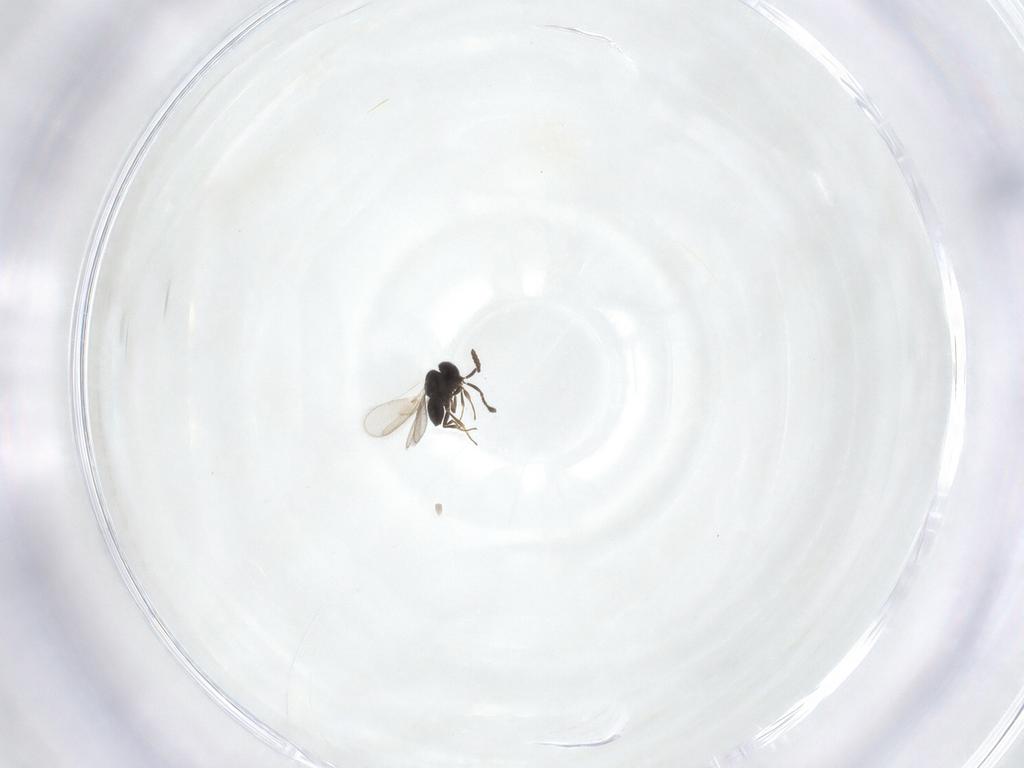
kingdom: Animalia
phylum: Arthropoda
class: Insecta
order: Hymenoptera
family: Scelionidae
